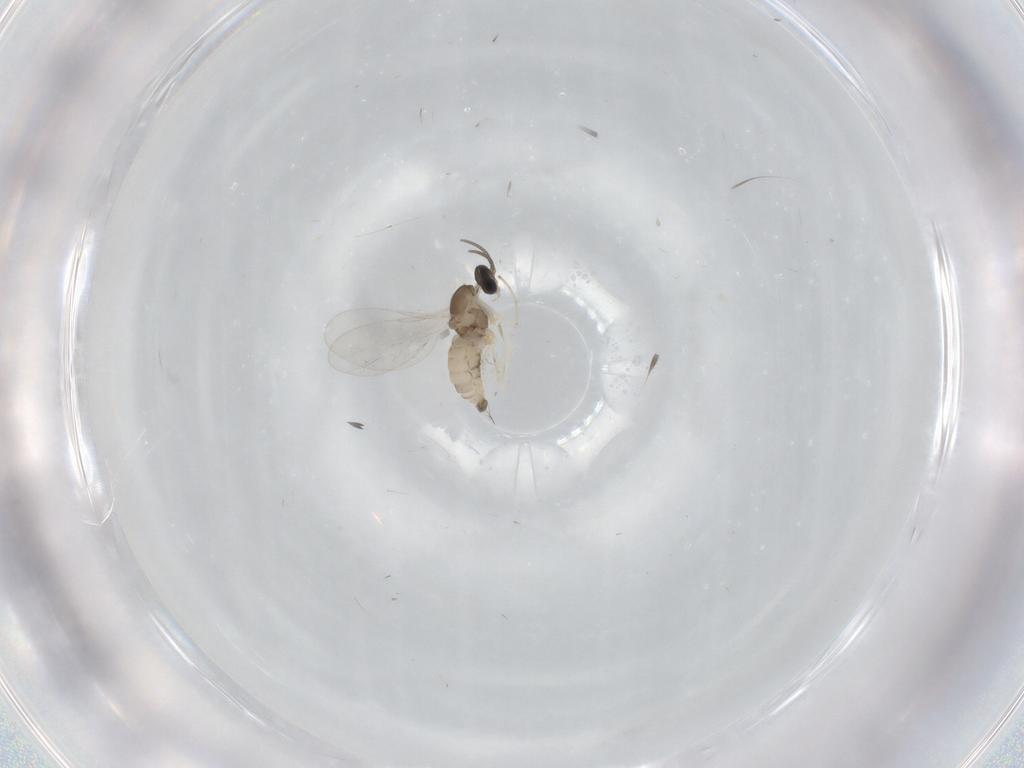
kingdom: Animalia
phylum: Arthropoda
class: Insecta
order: Diptera
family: Cecidomyiidae
